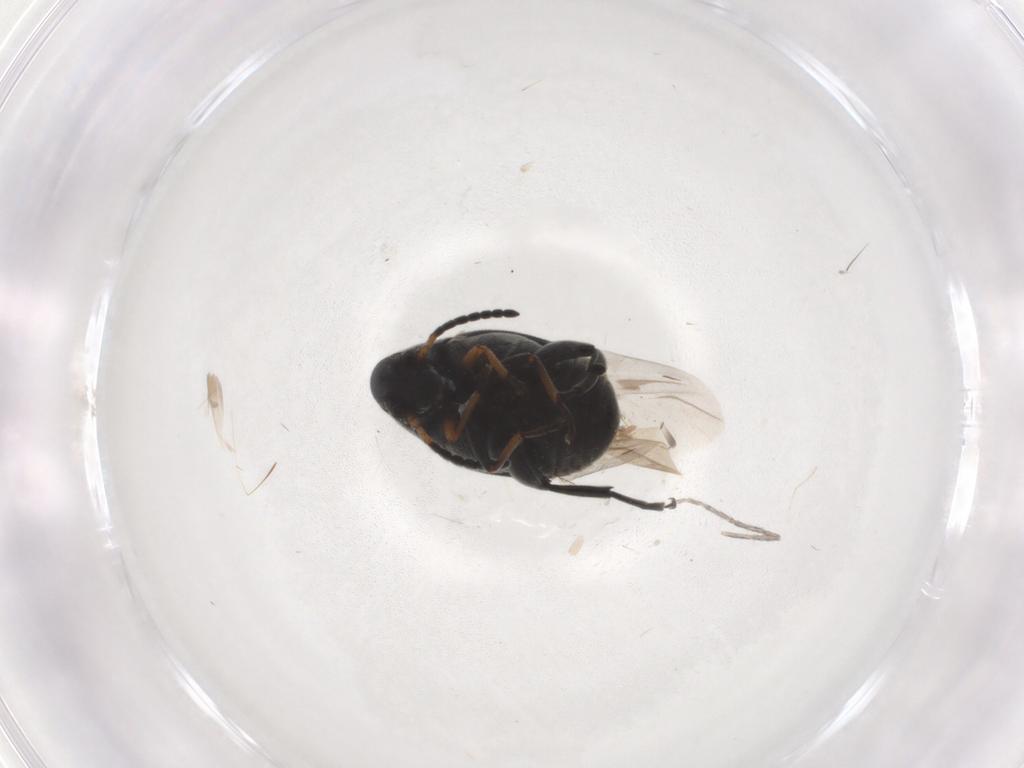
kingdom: Animalia
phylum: Arthropoda
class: Insecta
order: Coleoptera
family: Chrysomelidae
